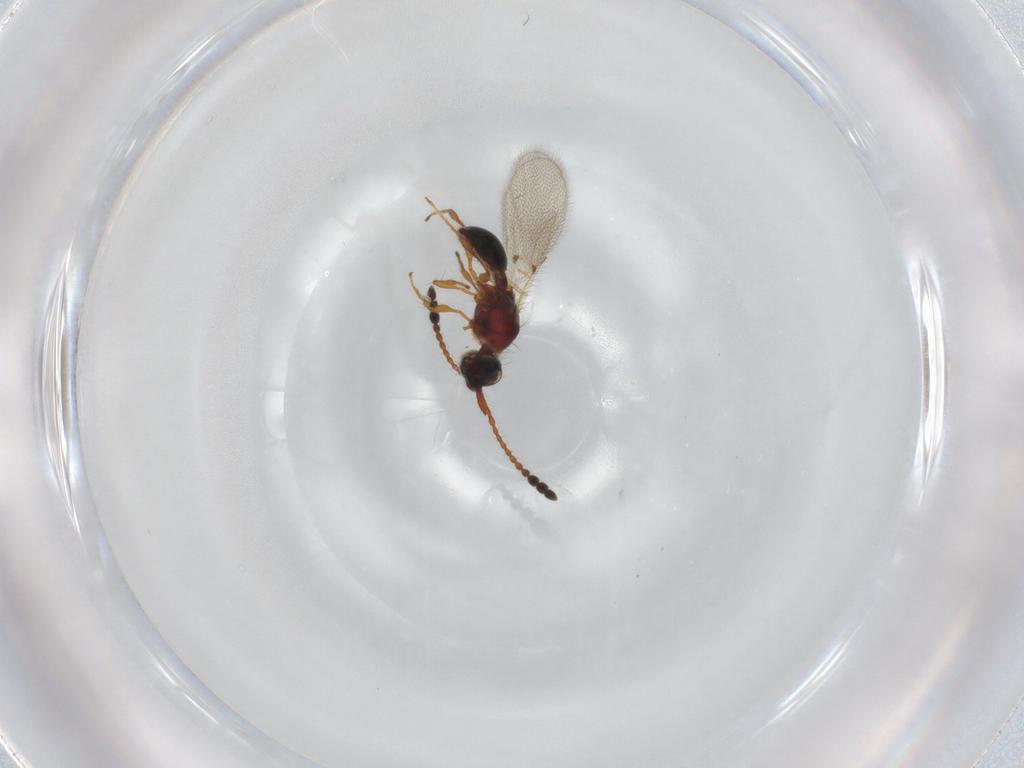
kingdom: Animalia
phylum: Arthropoda
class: Insecta
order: Hymenoptera
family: Diapriidae
